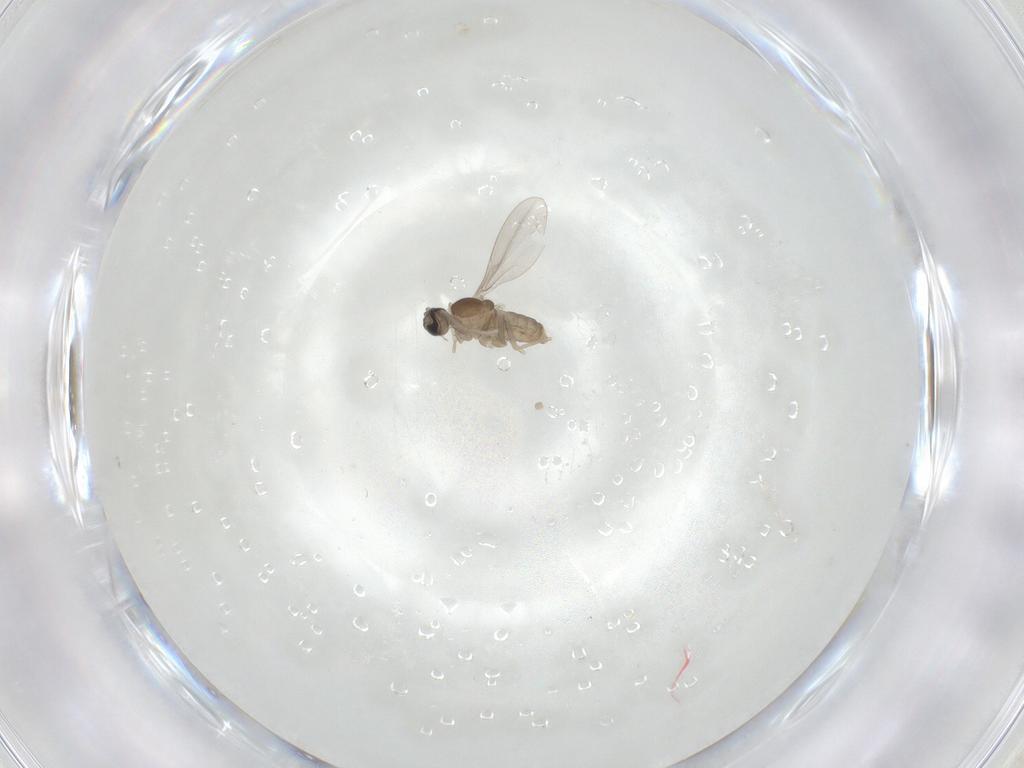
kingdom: Animalia
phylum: Arthropoda
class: Insecta
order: Diptera
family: Cecidomyiidae
